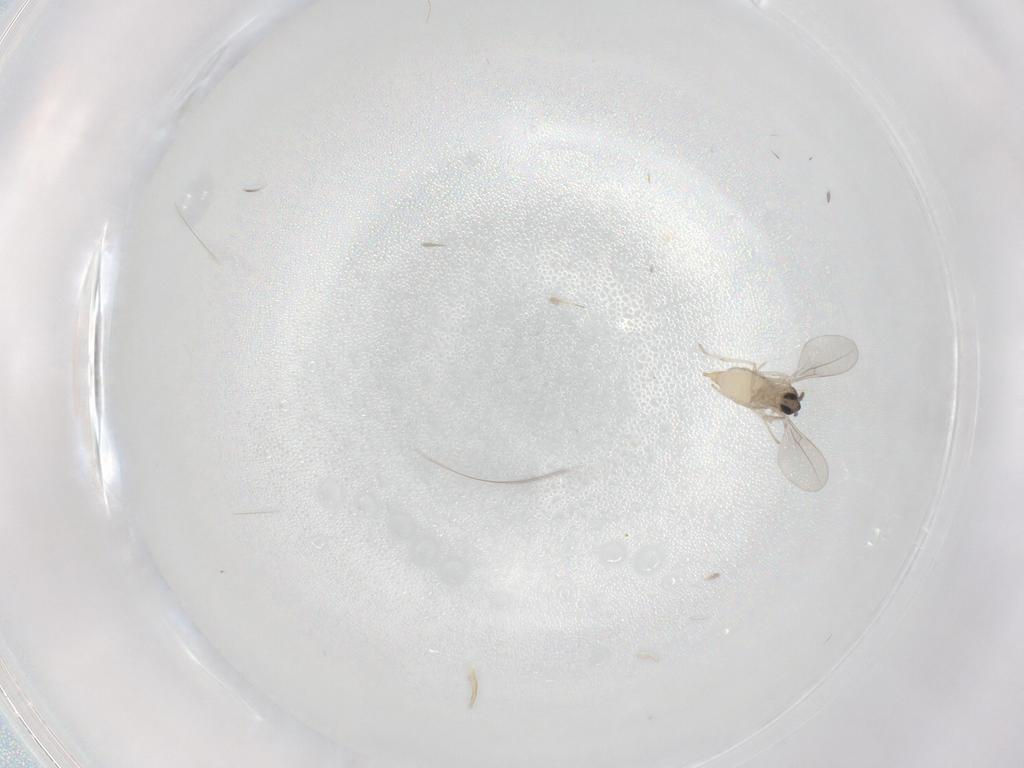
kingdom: Animalia
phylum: Arthropoda
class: Insecta
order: Diptera
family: Cecidomyiidae
